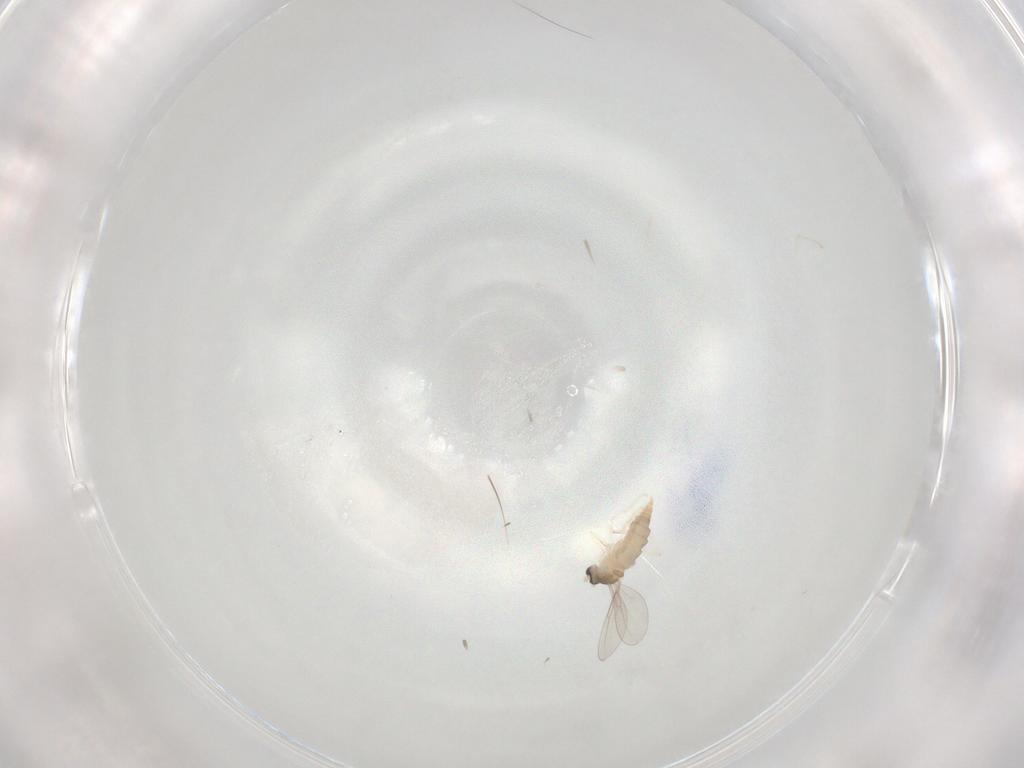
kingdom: Animalia
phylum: Arthropoda
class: Insecta
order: Diptera
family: Cecidomyiidae
